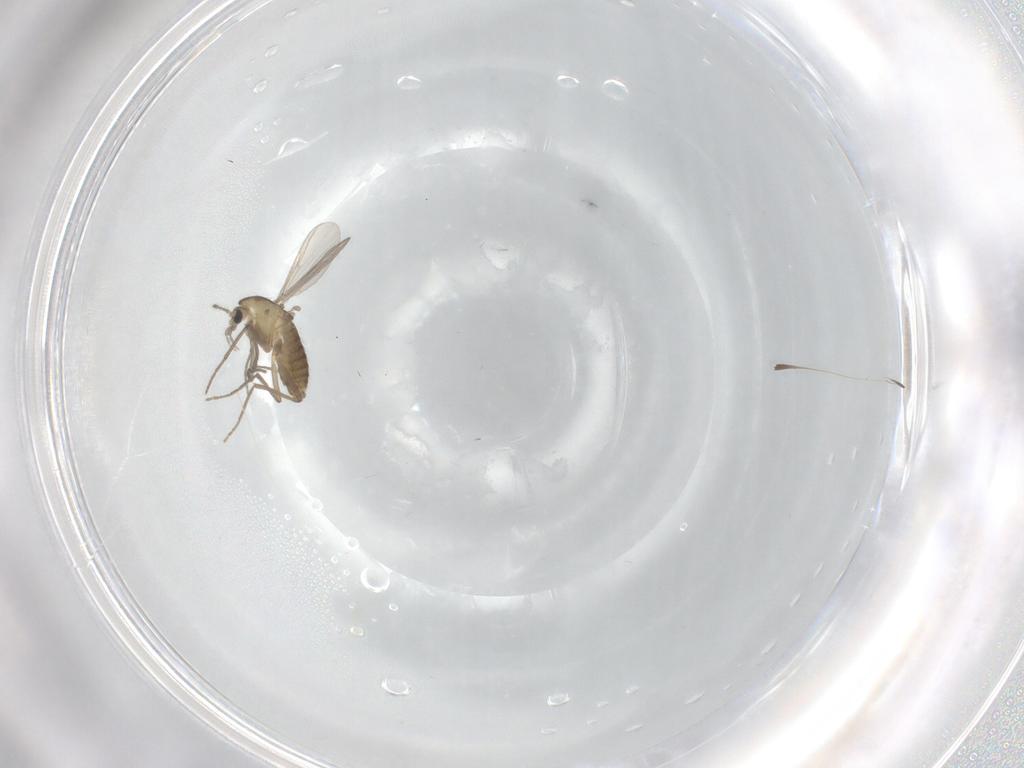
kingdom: Animalia
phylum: Arthropoda
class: Insecta
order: Diptera
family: Chironomidae
